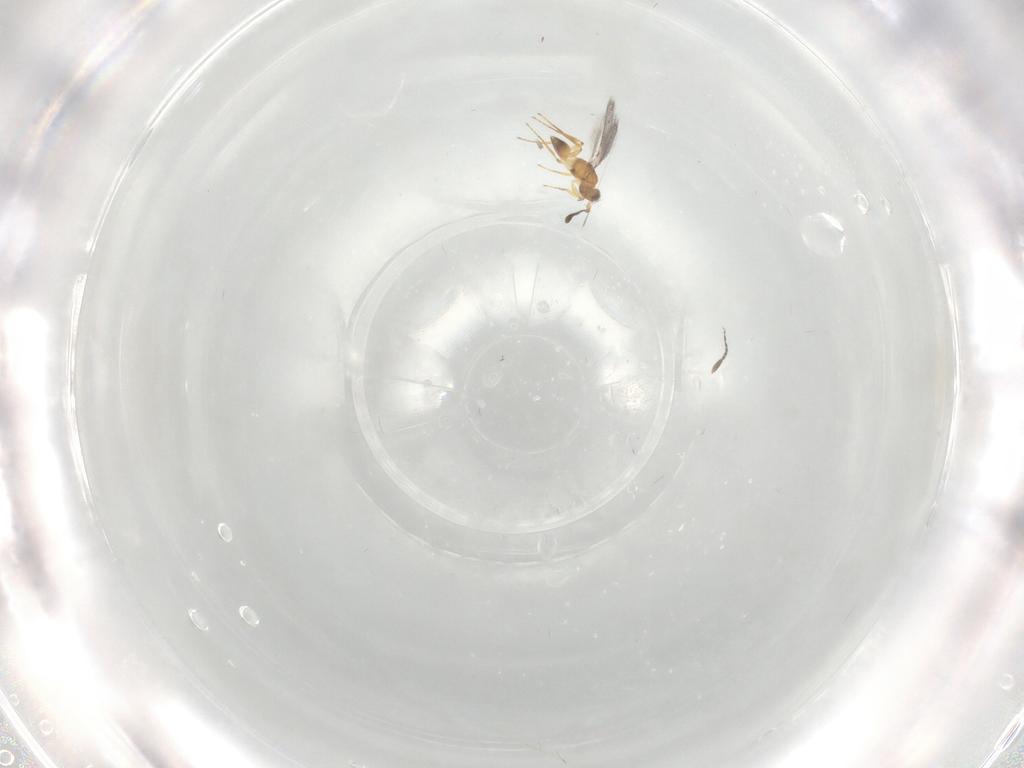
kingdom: Animalia
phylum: Arthropoda
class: Insecta
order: Hymenoptera
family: Mymaridae
